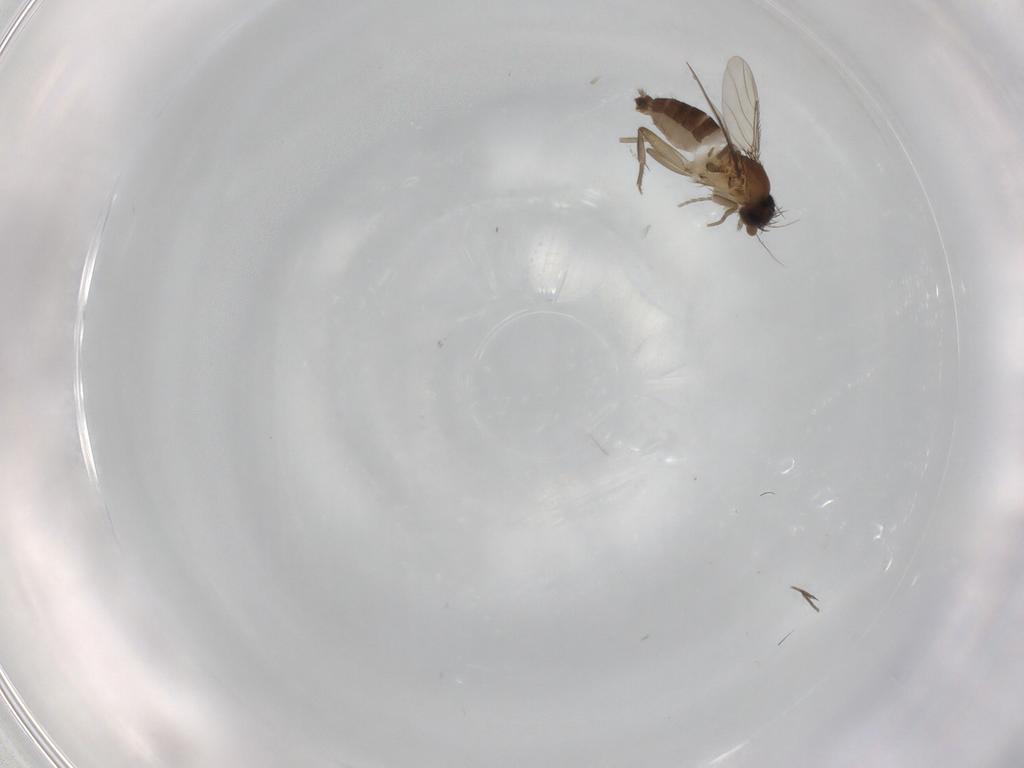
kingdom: Animalia
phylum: Arthropoda
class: Insecta
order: Diptera
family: Phoridae
